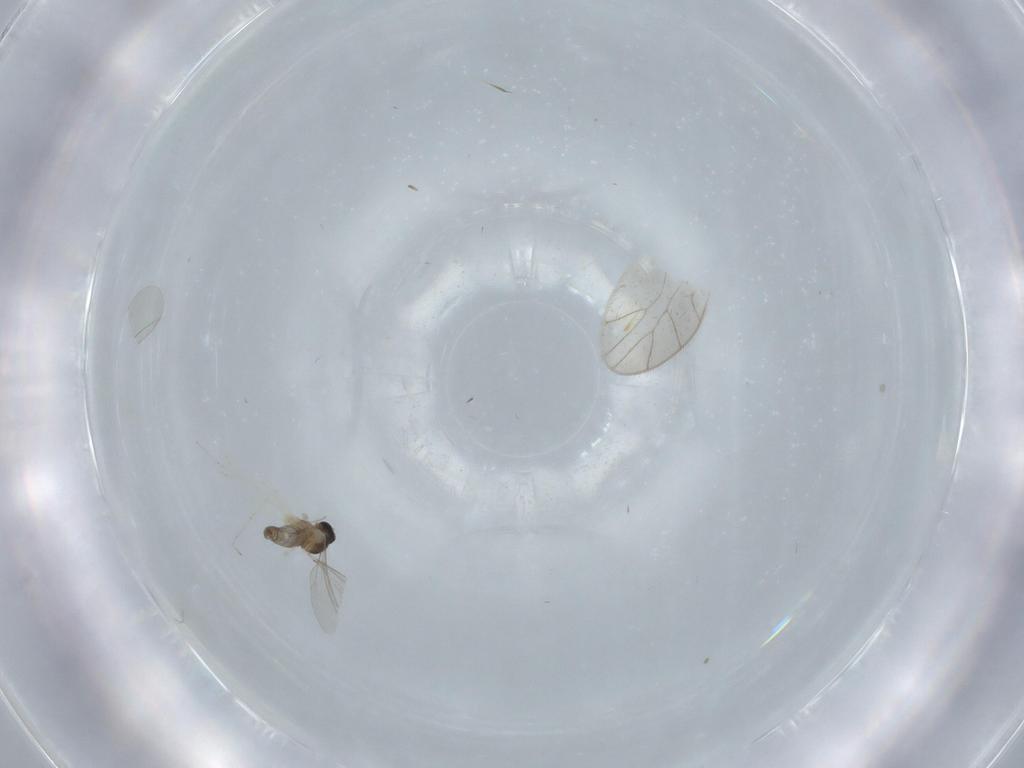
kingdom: Animalia
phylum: Arthropoda
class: Insecta
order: Diptera
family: Cecidomyiidae
